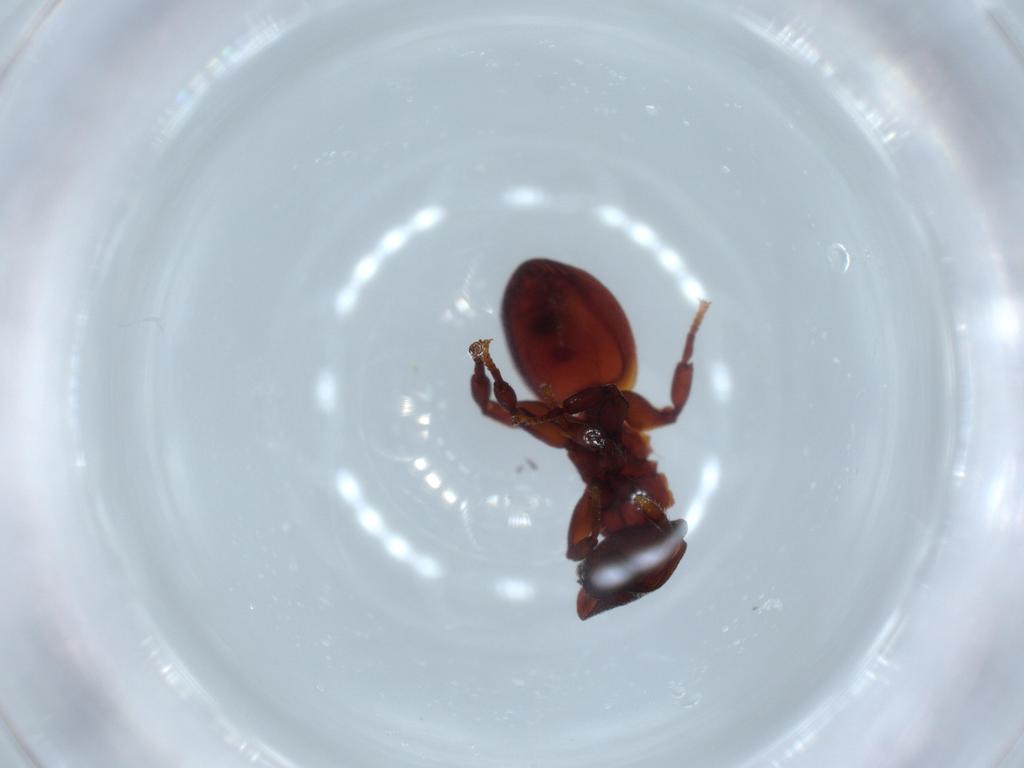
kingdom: Animalia
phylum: Arthropoda
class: Insecta
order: Hymenoptera
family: Formicidae
